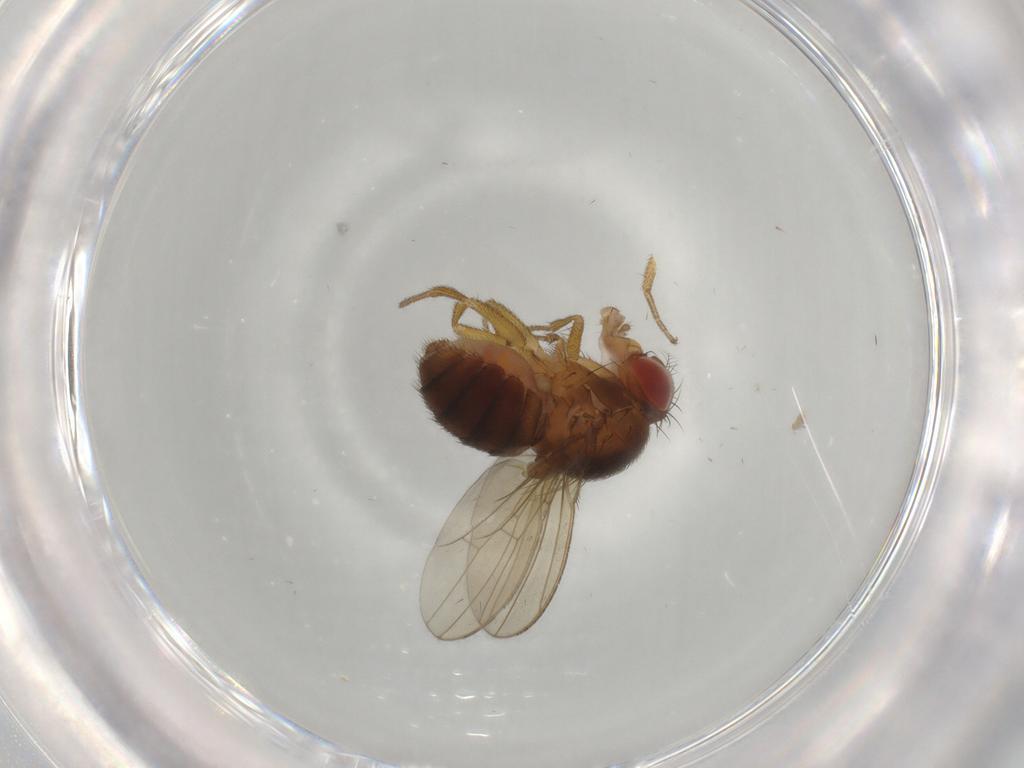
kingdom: Animalia
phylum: Arthropoda
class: Insecta
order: Diptera
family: Drosophilidae
